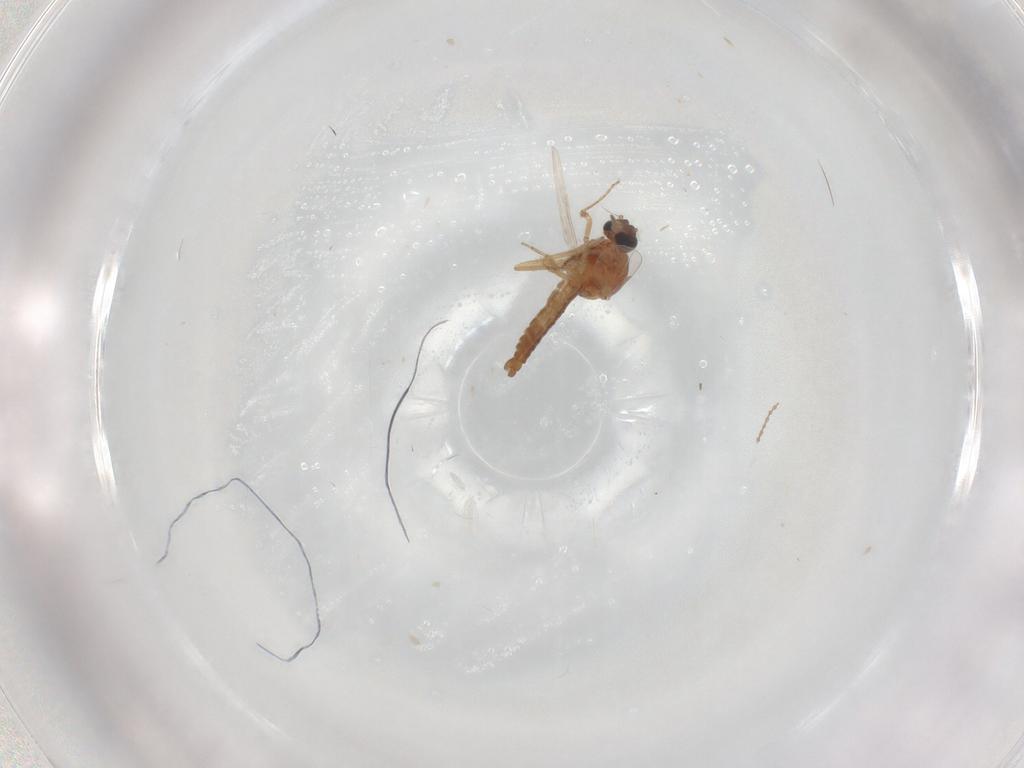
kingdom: Animalia
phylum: Arthropoda
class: Insecta
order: Diptera
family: Ceratopogonidae
